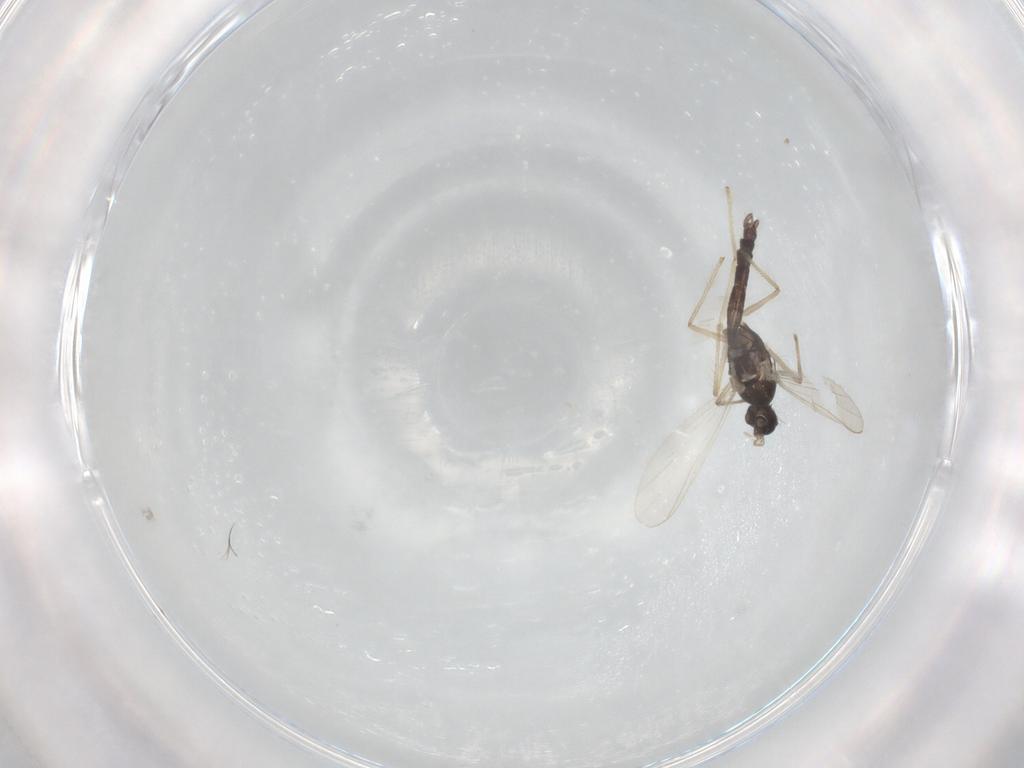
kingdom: Animalia
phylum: Arthropoda
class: Insecta
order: Diptera
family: Chironomidae
